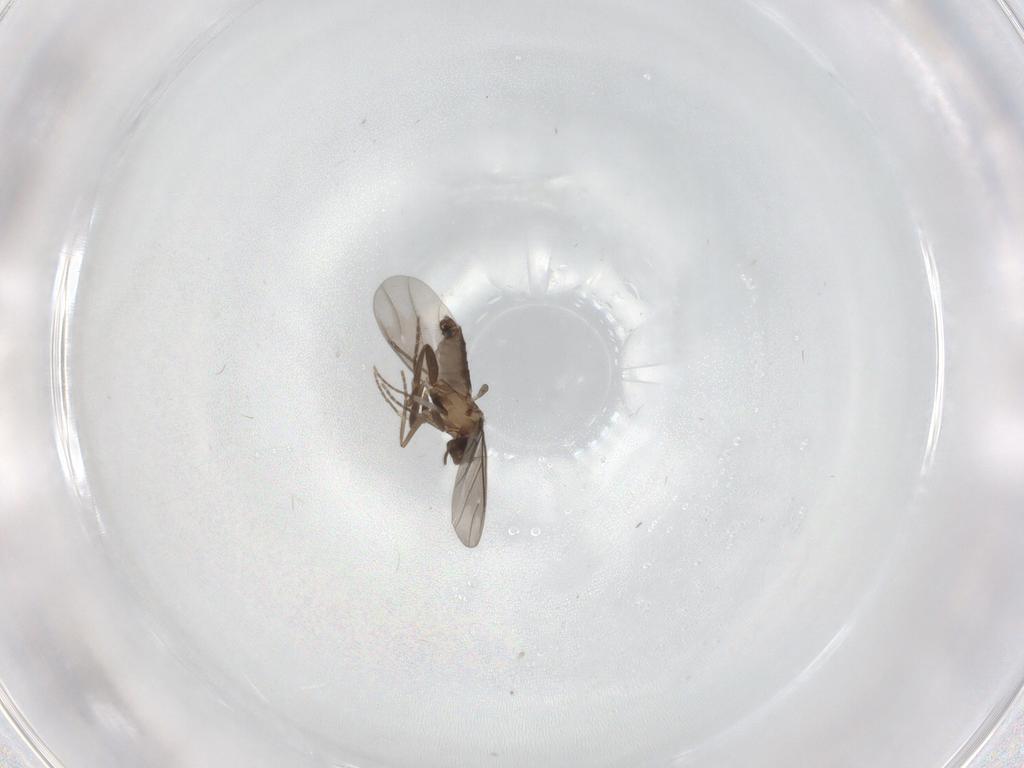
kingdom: Animalia
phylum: Arthropoda
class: Insecta
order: Diptera
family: Phoridae
